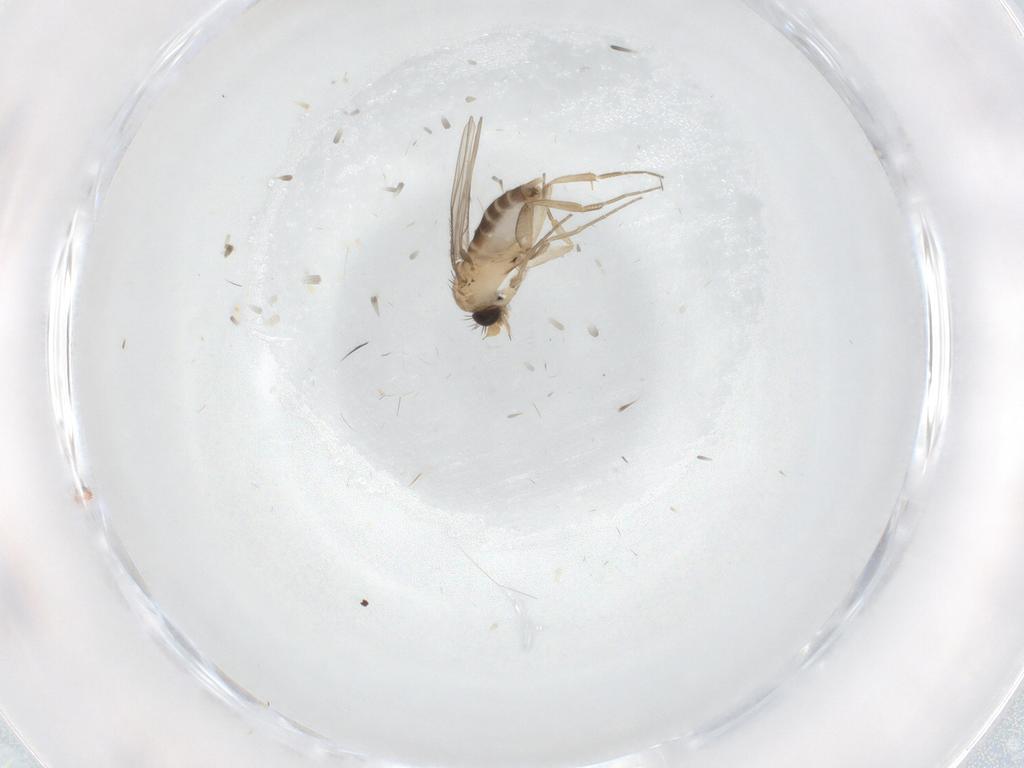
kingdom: Animalia
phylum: Arthropoda
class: Insecta
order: Diptera
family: Phoridae
